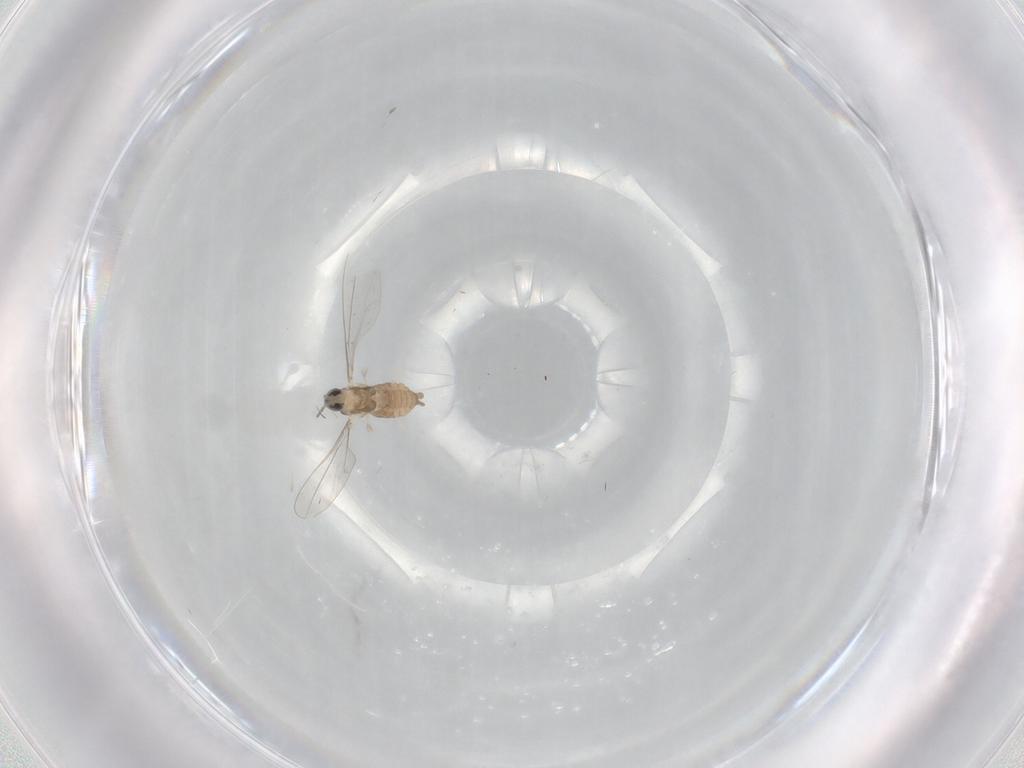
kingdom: Animalia
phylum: Arthropoda
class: Insecta
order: Diptera
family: Cecidomyiidae
